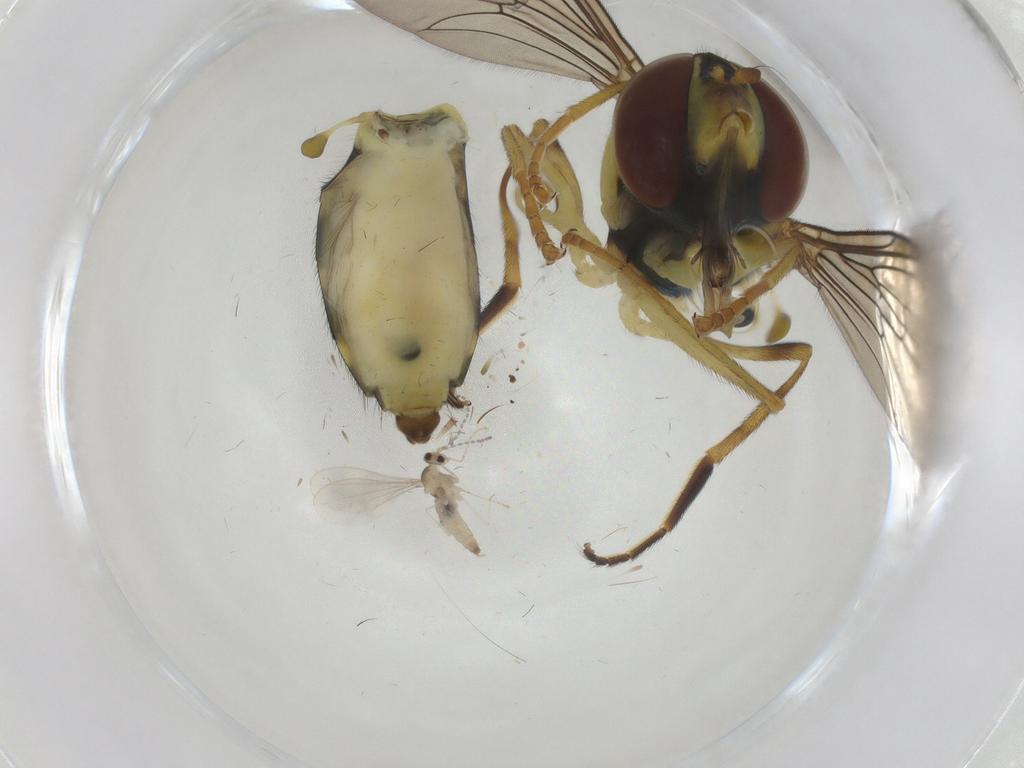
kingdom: Animalia
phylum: Arthropoda
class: Insecta
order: Diptera
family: Syrphidae
